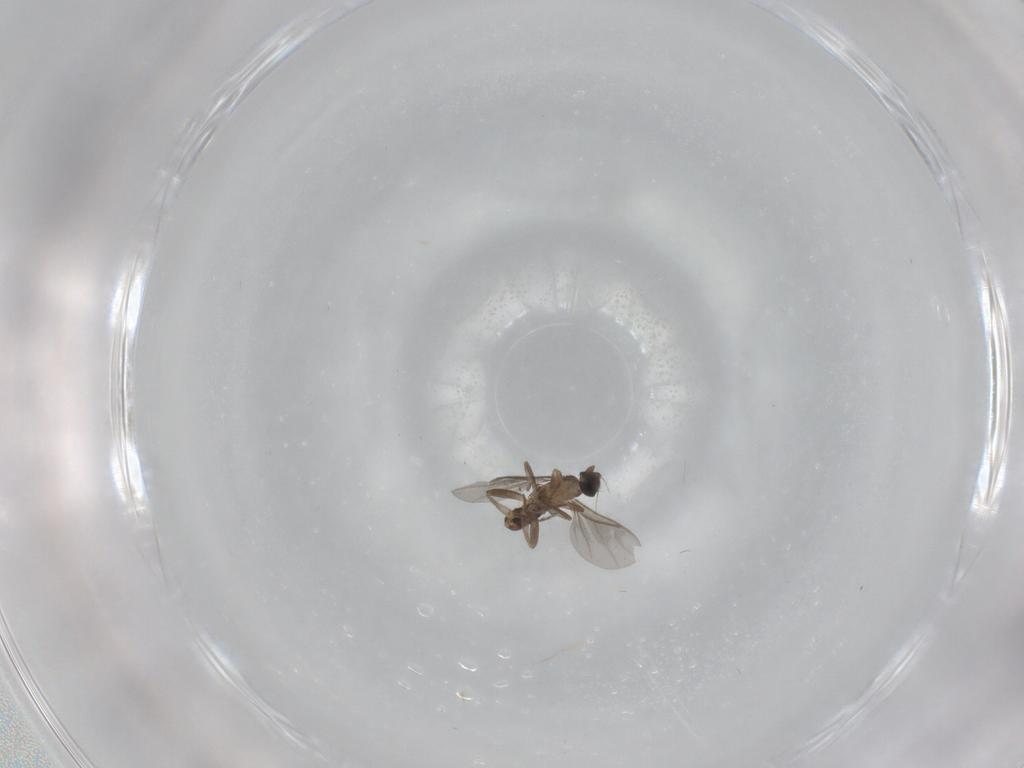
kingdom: Animalia
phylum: Arthropoda
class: Insecta
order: Diptera
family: Phoridae
